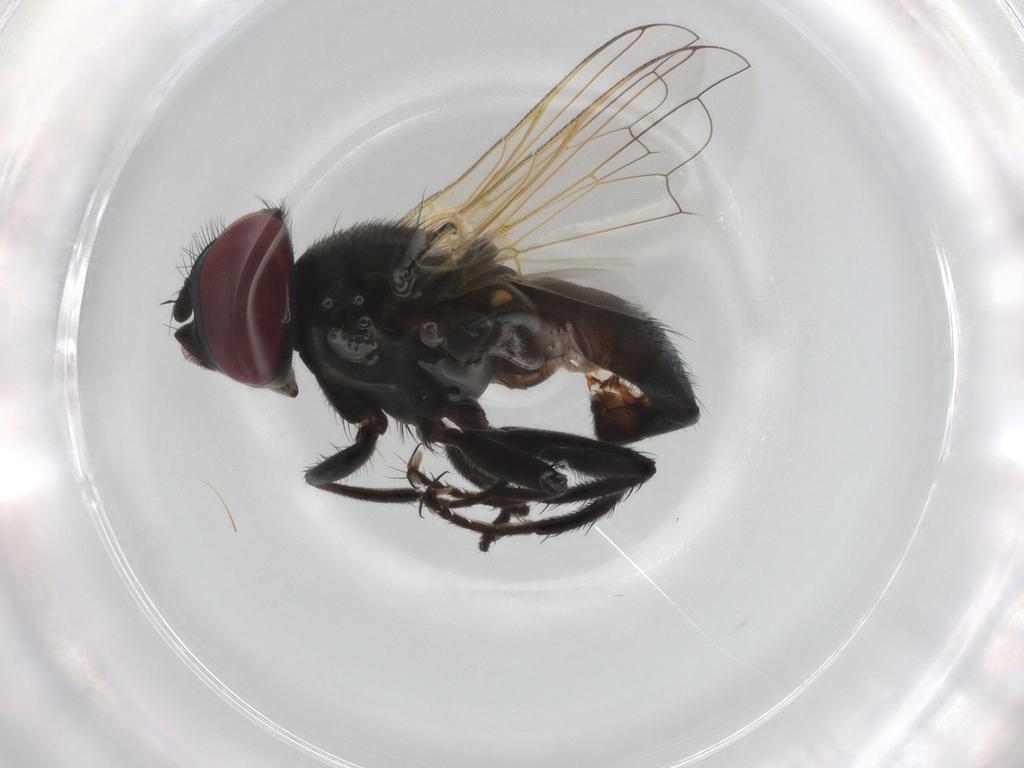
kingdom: Animalia
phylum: Arthropoda
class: Insecta
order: Diptera
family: Tachinidae
